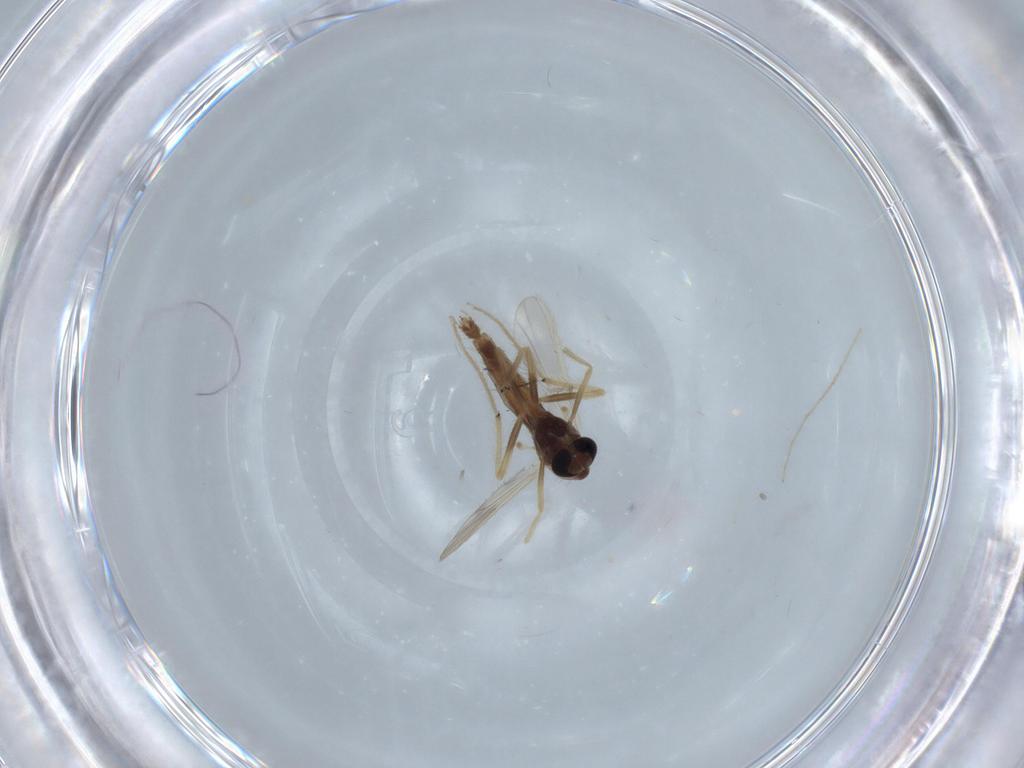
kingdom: Animalia
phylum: Arthropoda
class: Insecta
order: Diptera
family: Chironomidae
